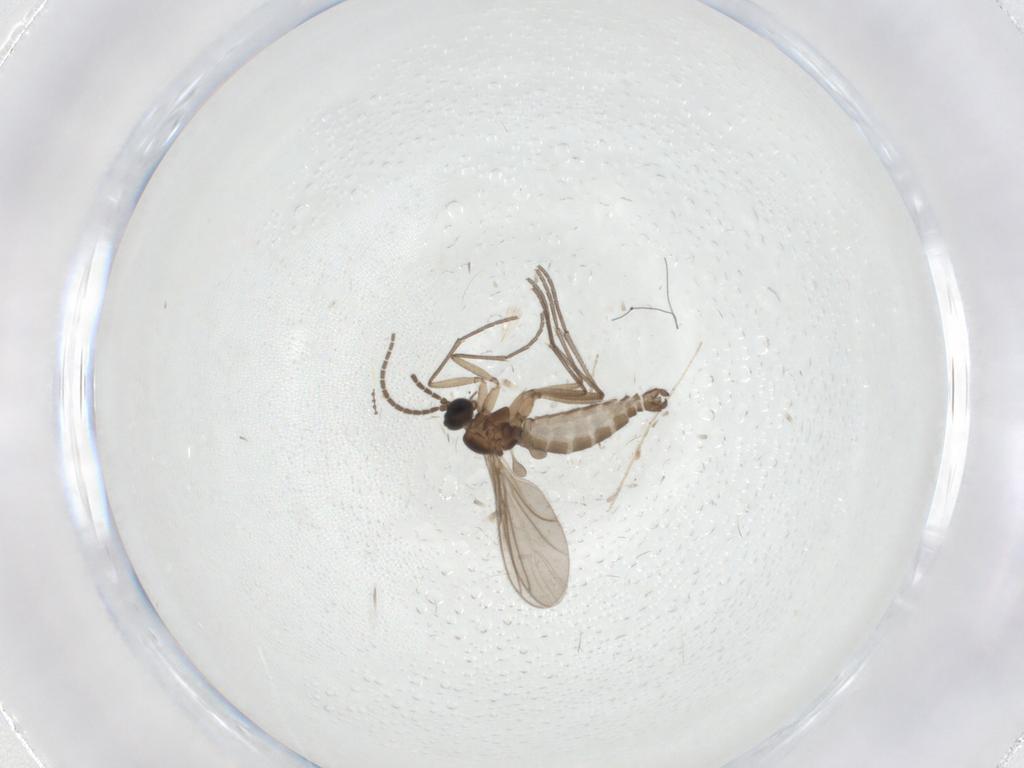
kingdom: Animalia
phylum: Arthropoda
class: Insecta
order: Diptera
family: Sciaridae
